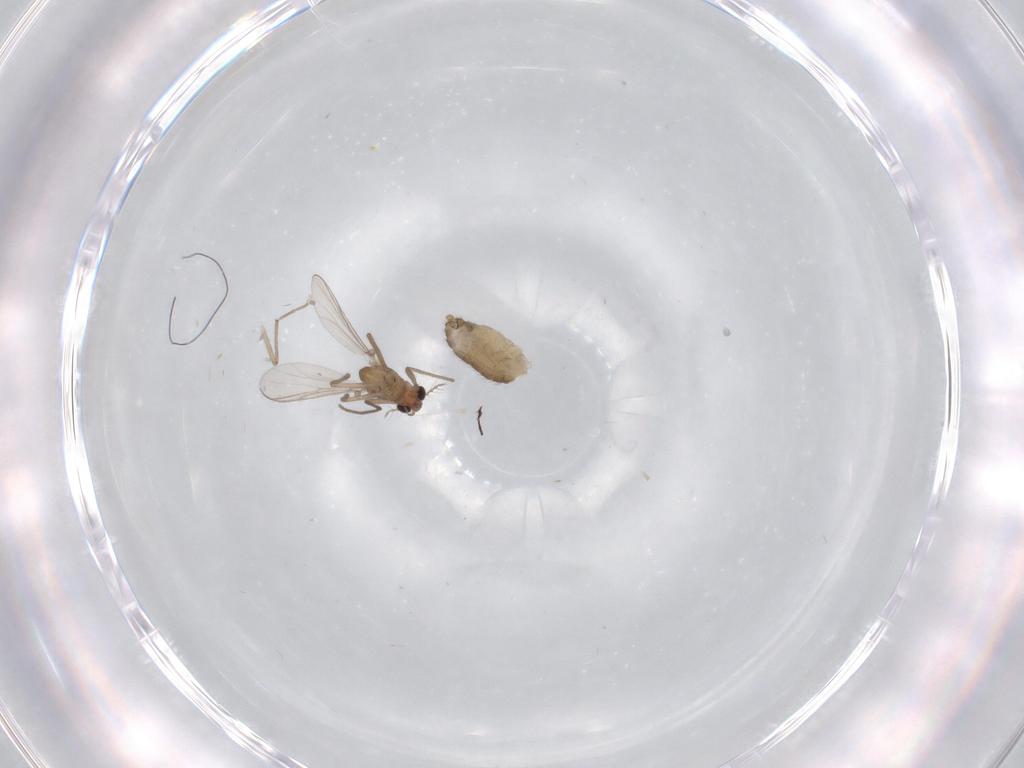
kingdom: Animalia
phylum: Arthropoda
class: Insecta
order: Diptera
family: Chironomidae
